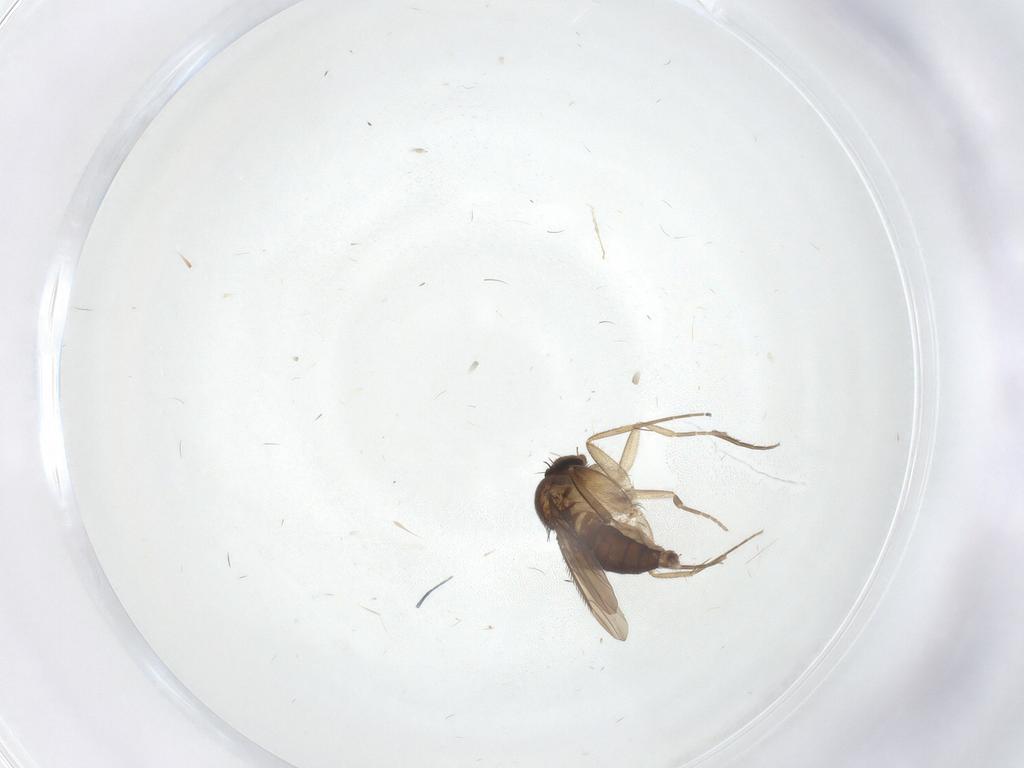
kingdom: Animalia
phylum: Arthropoda
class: Insecta
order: Diptera
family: Phoridae
